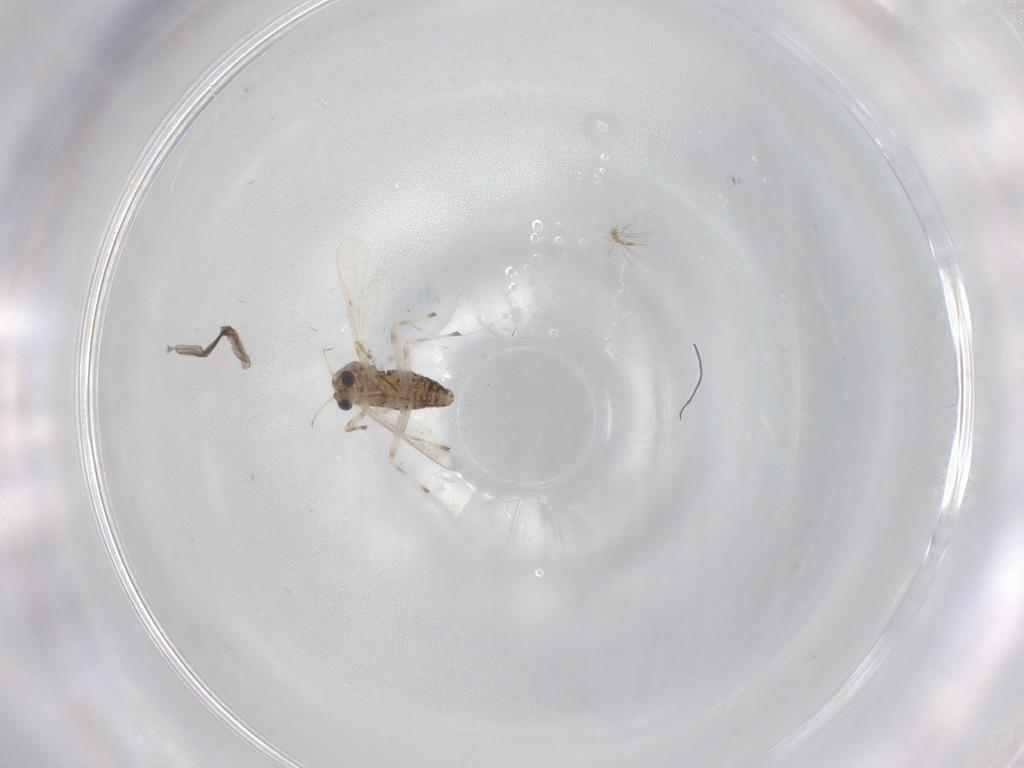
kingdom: Animalia
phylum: Arthropoda
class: Insecta
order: Diptera
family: Chironomidae
